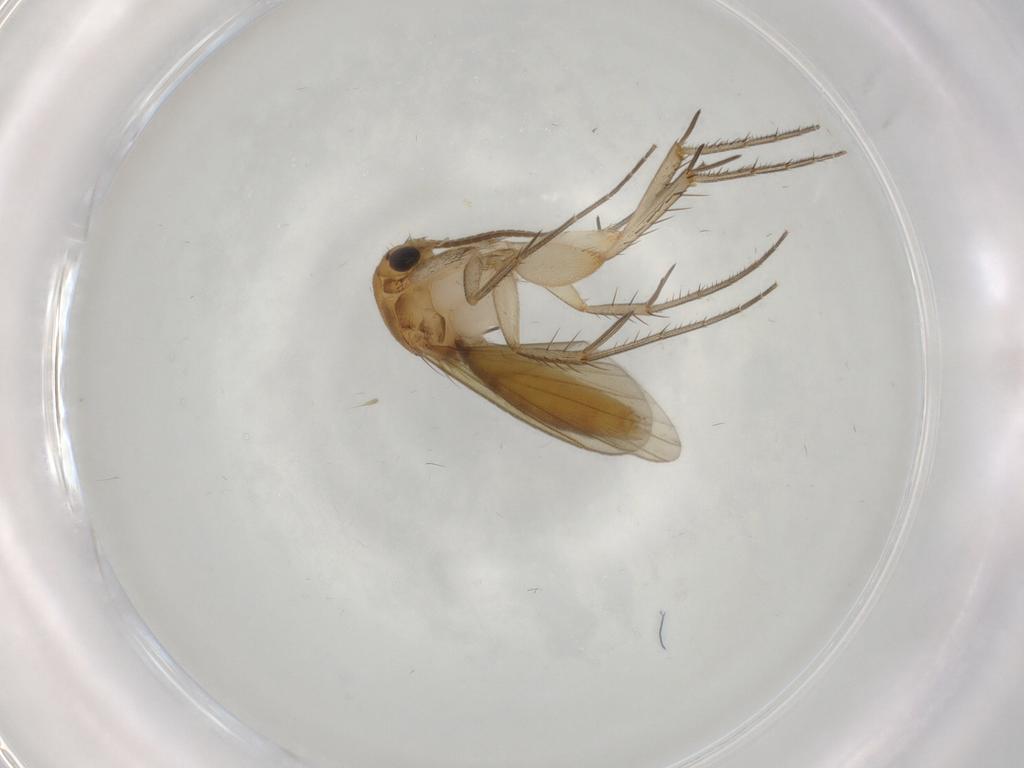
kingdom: Animalia
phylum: Arthropoda
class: Insecta
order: Diptera
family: Mycetophilidae
